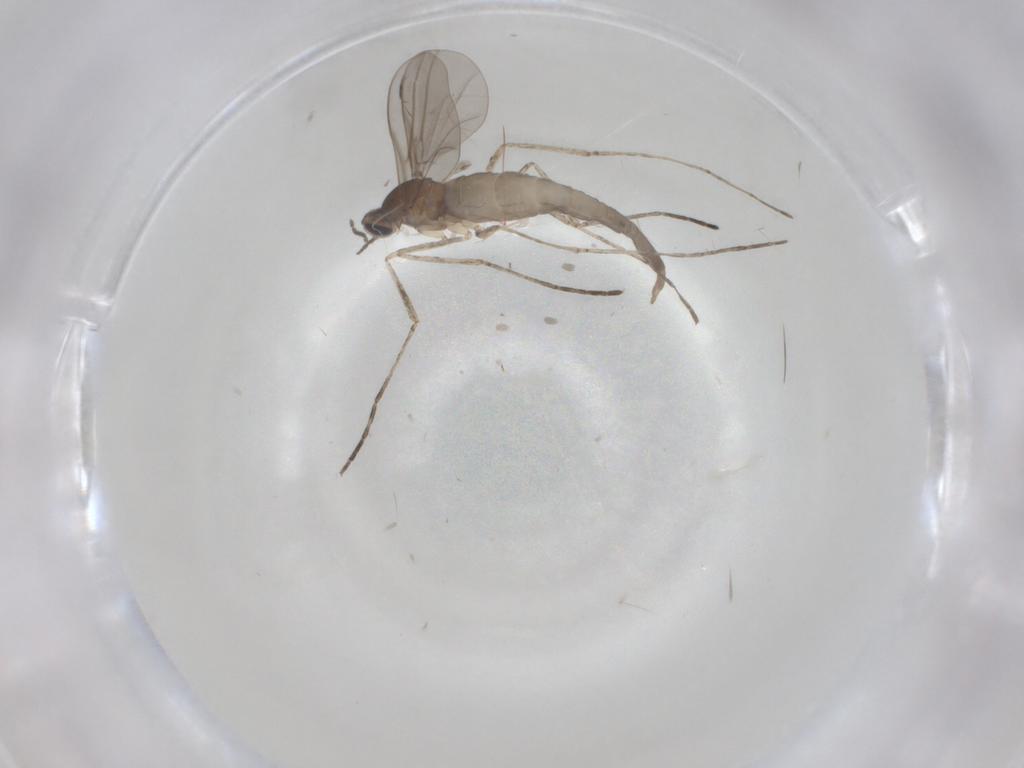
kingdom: Animalia
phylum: Arthropoda
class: Insecta
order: Diptera
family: Cecidomyiidae
